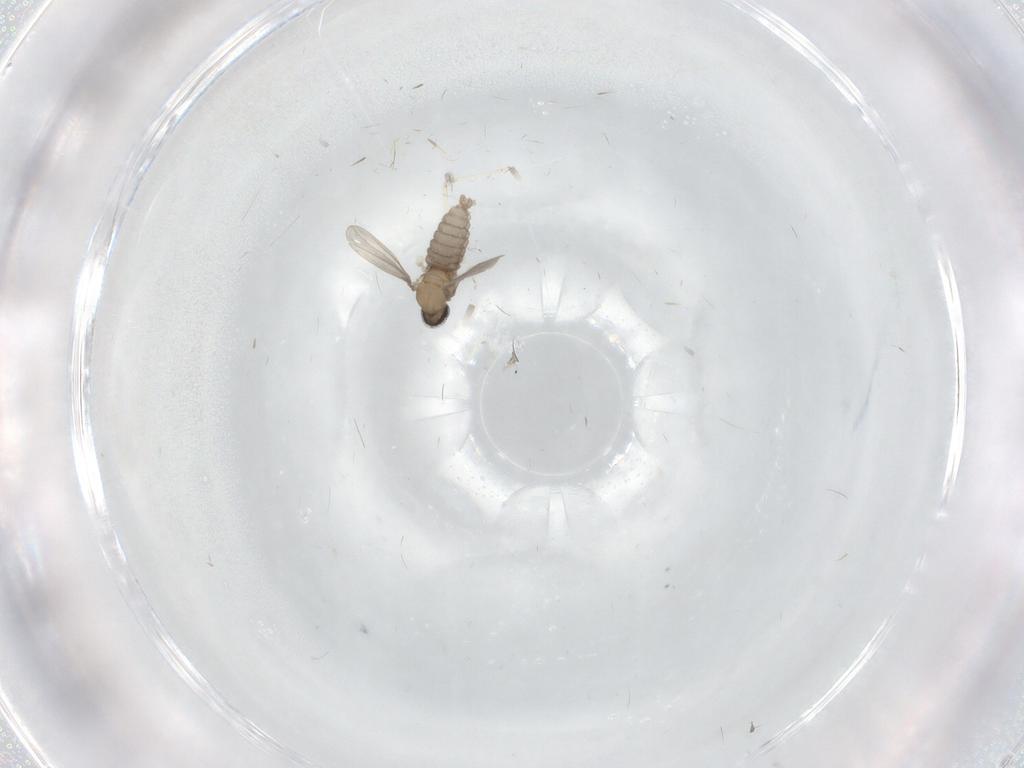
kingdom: Animalia
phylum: Arthropoda
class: Insecta
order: Diptera
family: Cecidomyiidae
